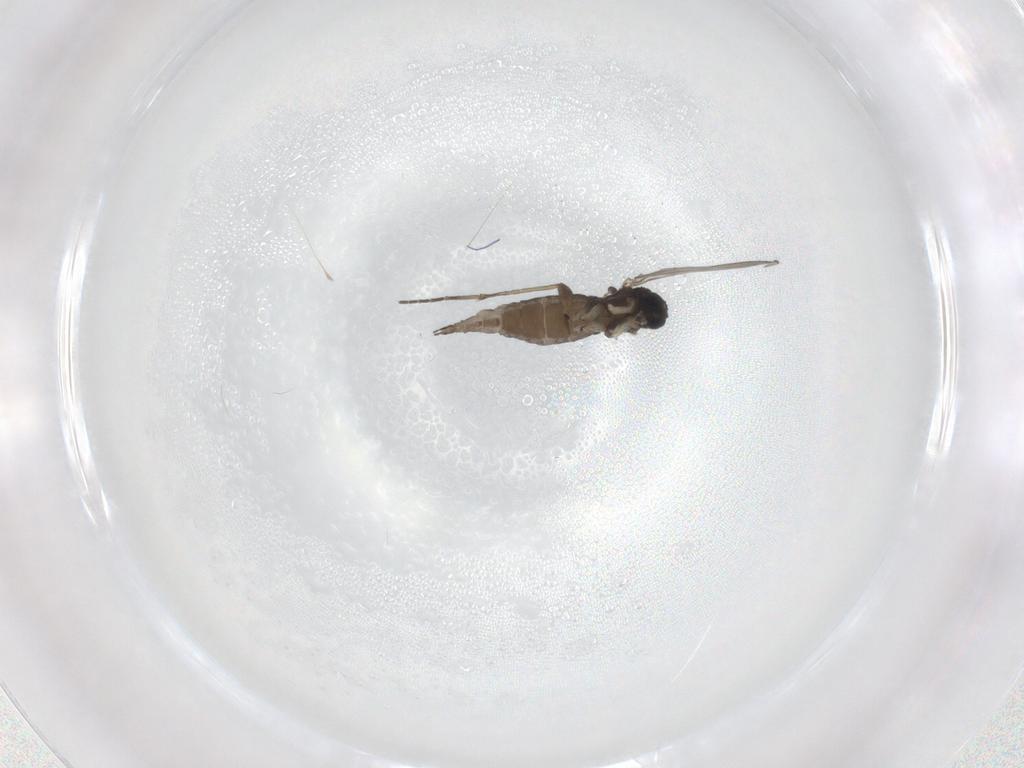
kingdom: Animalia
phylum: Arthropoda
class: Insecta
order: Diptera
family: Sciaridae
